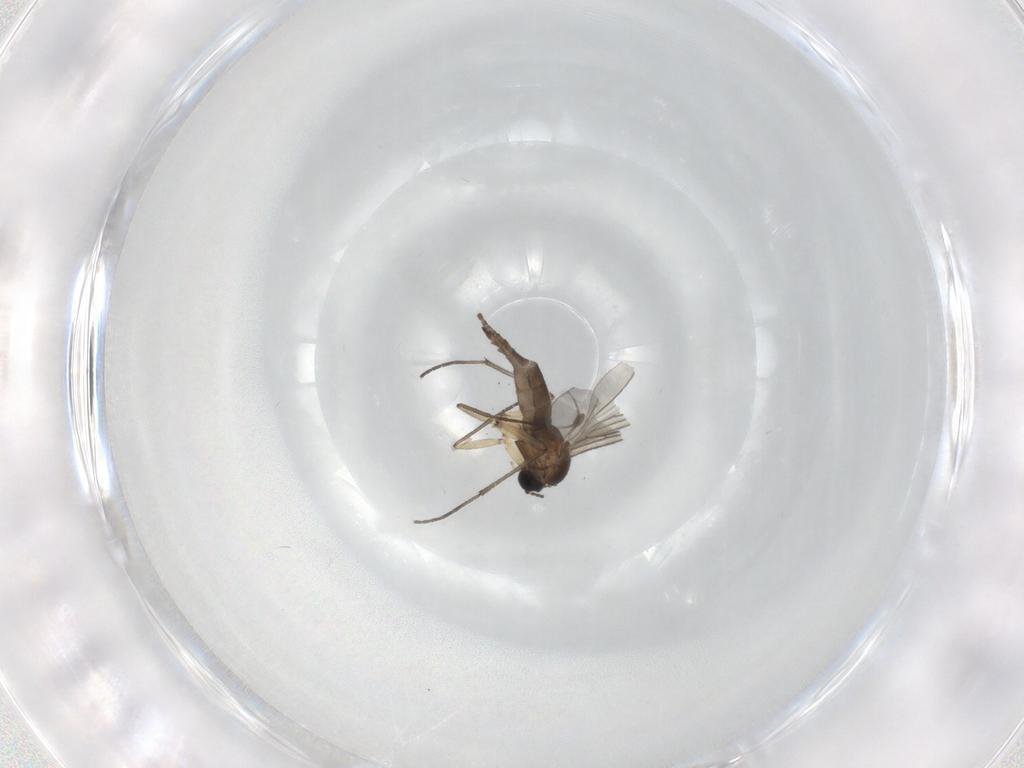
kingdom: Animalia
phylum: Arthropoda
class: Insecta
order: Diptera
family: Sciaridae
